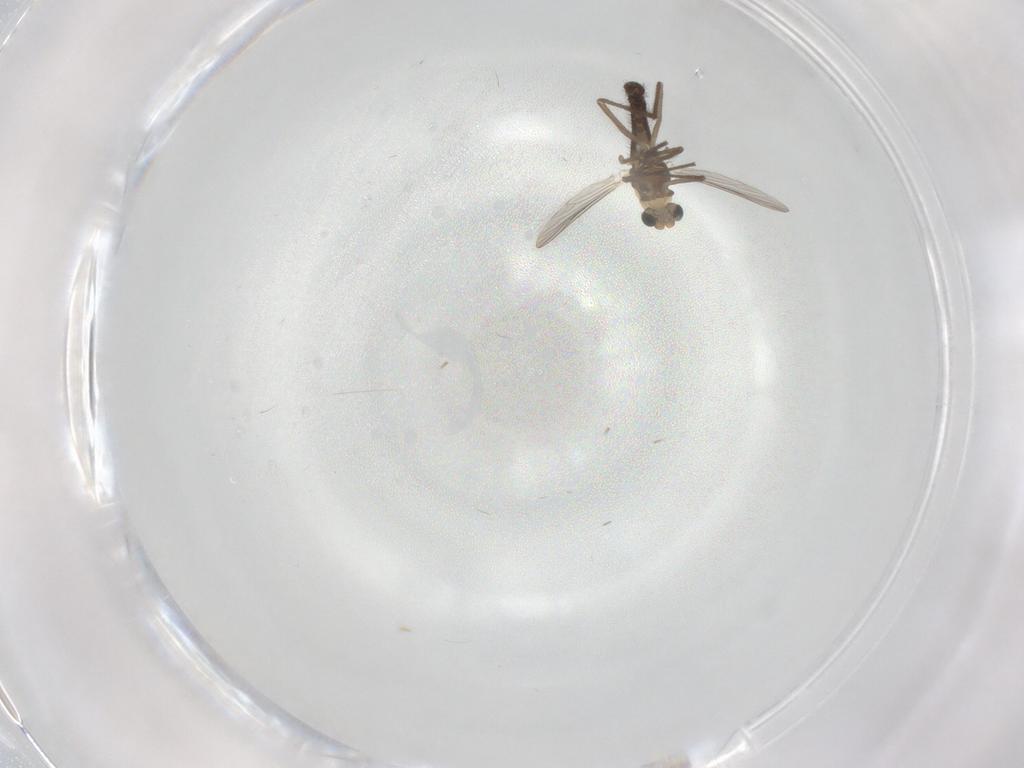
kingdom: Animalia
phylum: Arthropoda
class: Insecta
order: Diptera
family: Chironomidae
